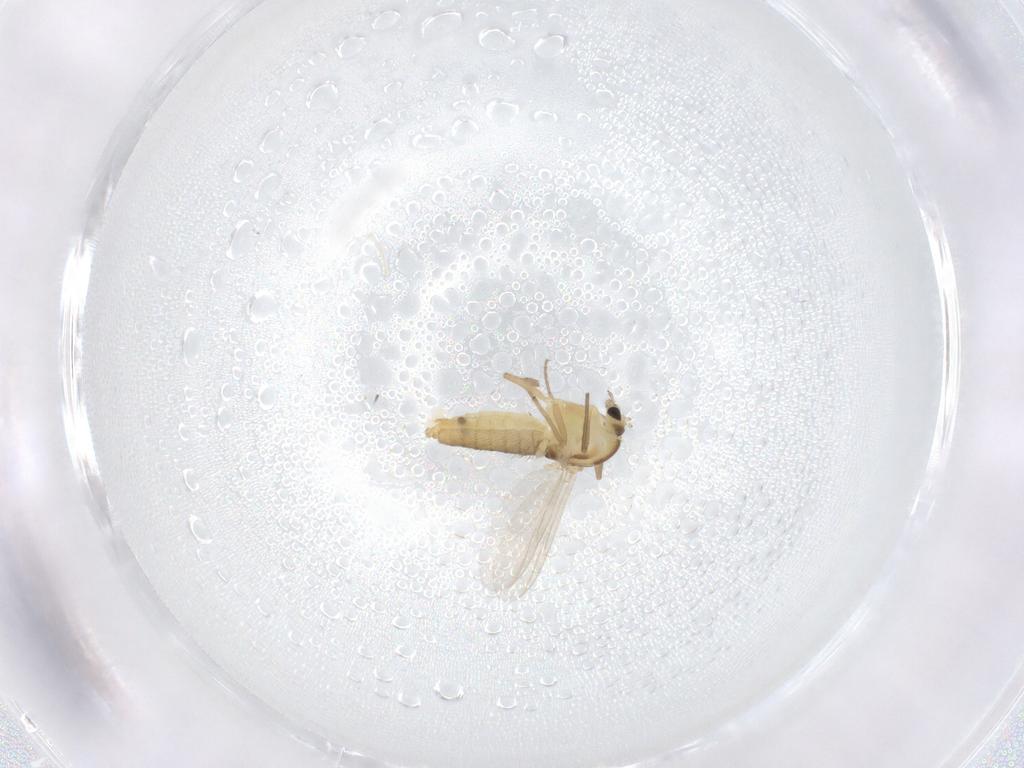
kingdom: Animalia
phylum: Arthropoda
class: Insecta
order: Diptera
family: Chironomidae
